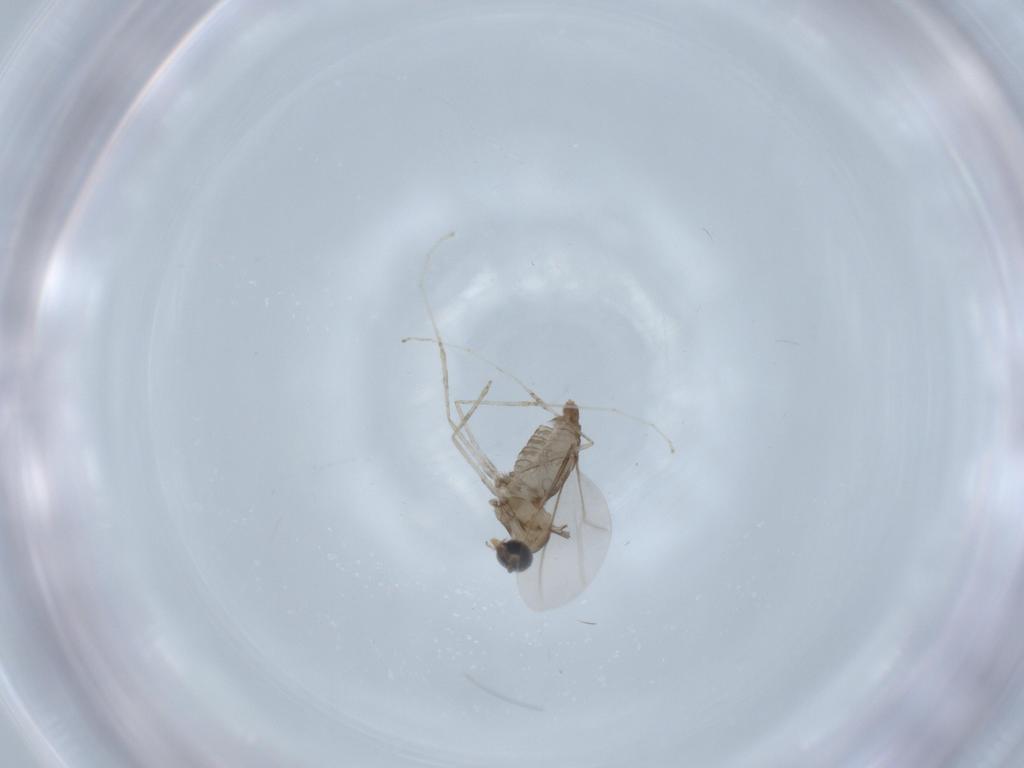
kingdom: Animalia
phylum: Arthropoda
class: Insecta
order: Diptera
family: Cecidomyiidae
